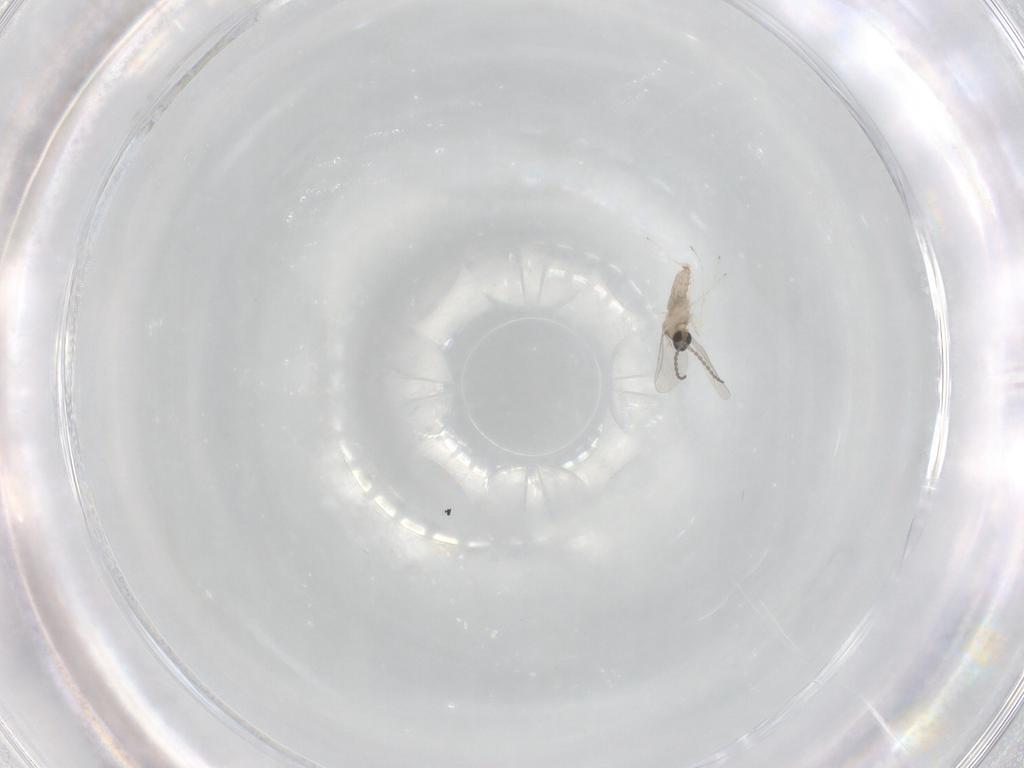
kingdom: Animalia
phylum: Arthropoda
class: Insecta
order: Diptera
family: Cecidomyiidae
